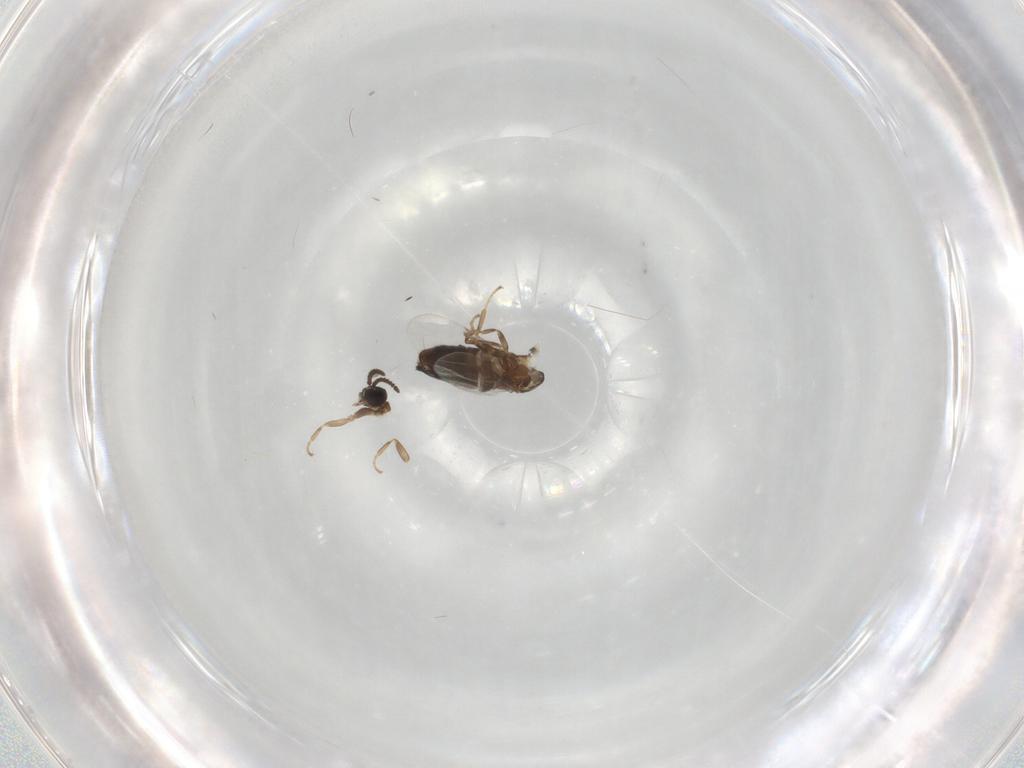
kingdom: Animalia
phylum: Arthropoda
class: Insecta
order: Diptera
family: Scatopsidae
